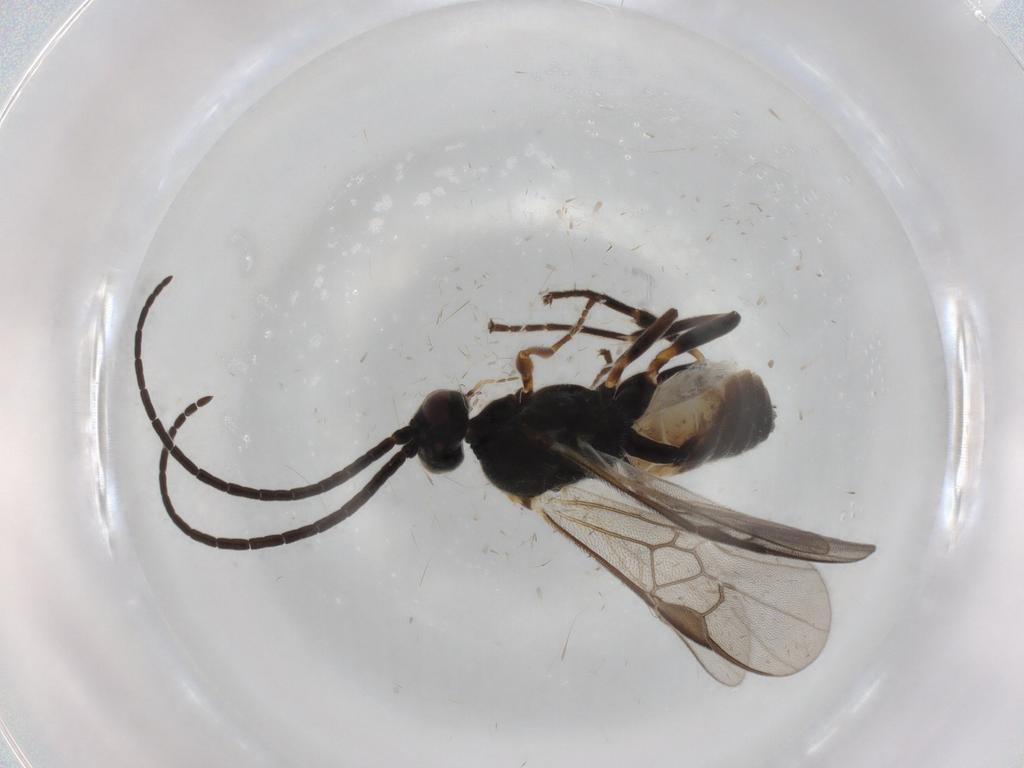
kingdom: Animalia
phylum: Arthropoda
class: Insecta
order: Hymenoptera
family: Braconidae
